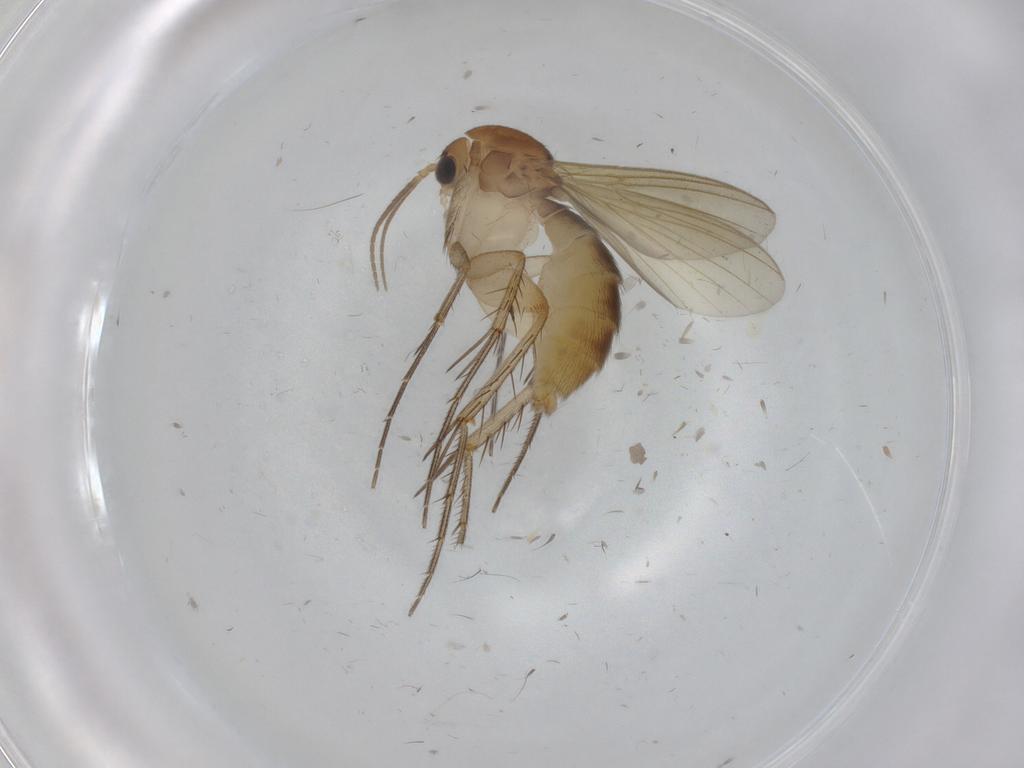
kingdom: Animalia
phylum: Arthropoda
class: Insecta
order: Diptera
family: Mycetophilidae
